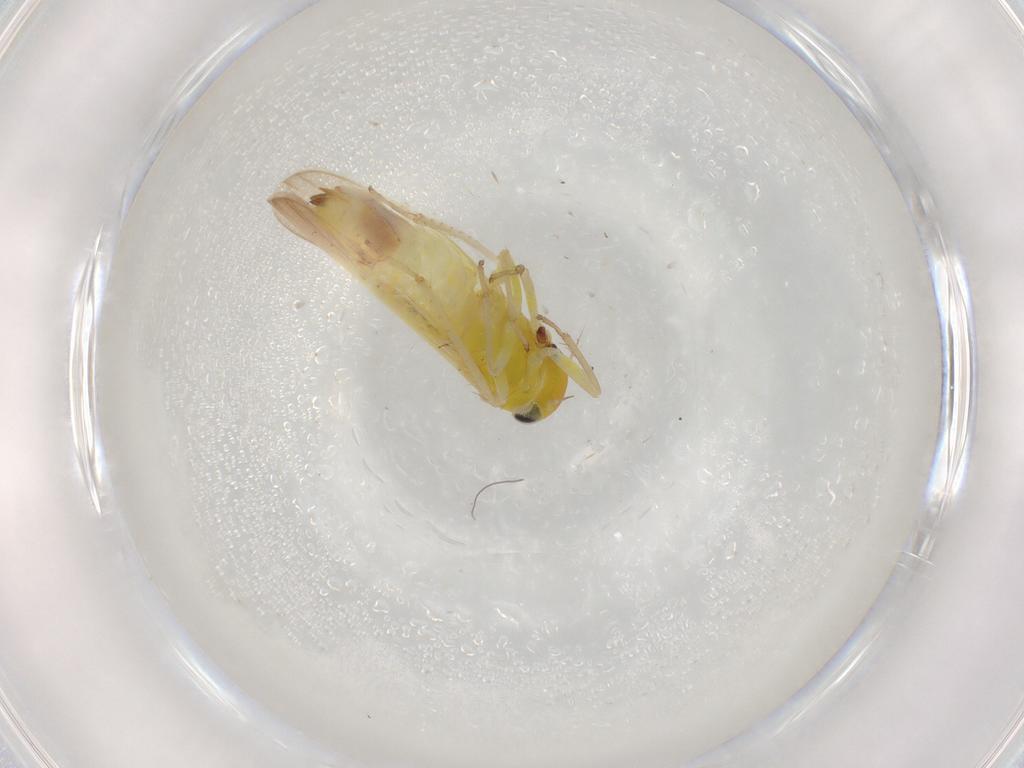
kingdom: Animalia
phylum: Arthropoda
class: Insecta
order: Hemiptera
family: Cicadellidae
